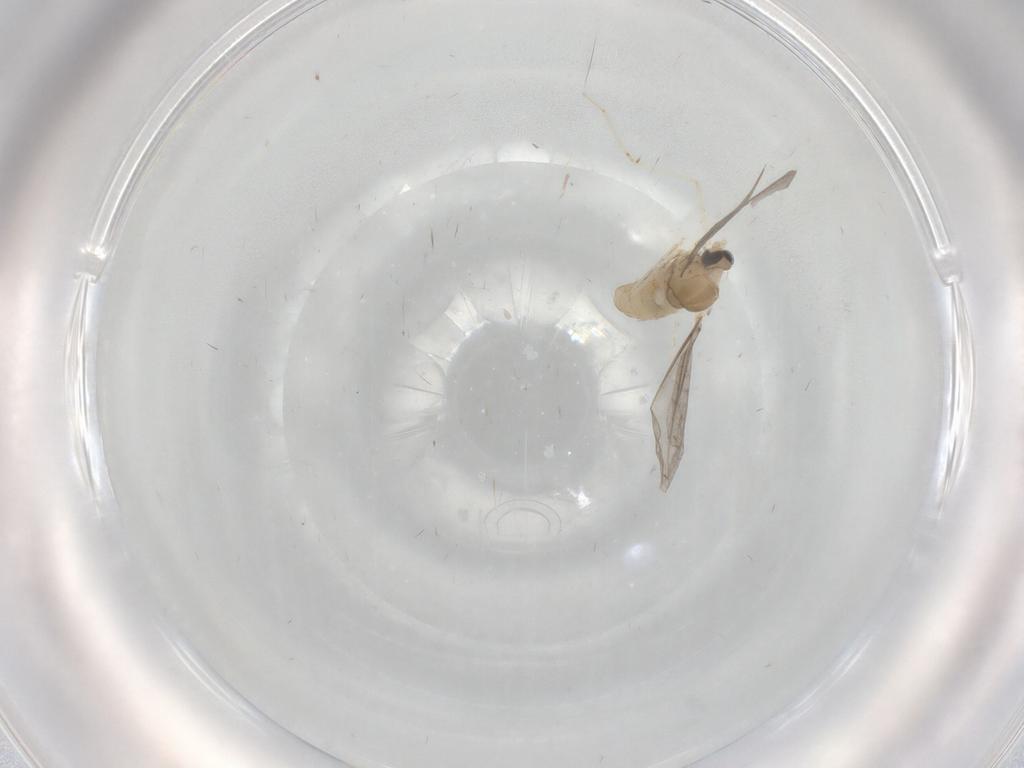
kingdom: Animalia
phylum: Arthropoda
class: Insecta
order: Diptera
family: Cecidomyiidae
